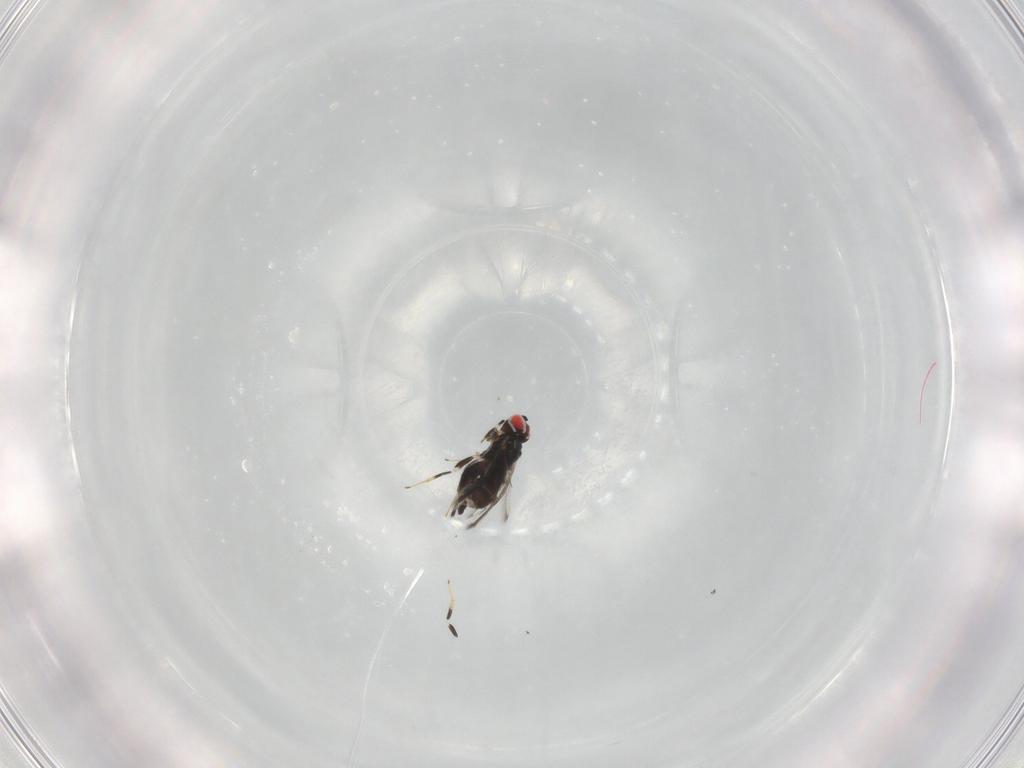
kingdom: Animalia
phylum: Arthropoda
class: Insecta
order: Hymenoptera
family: Azotidae
